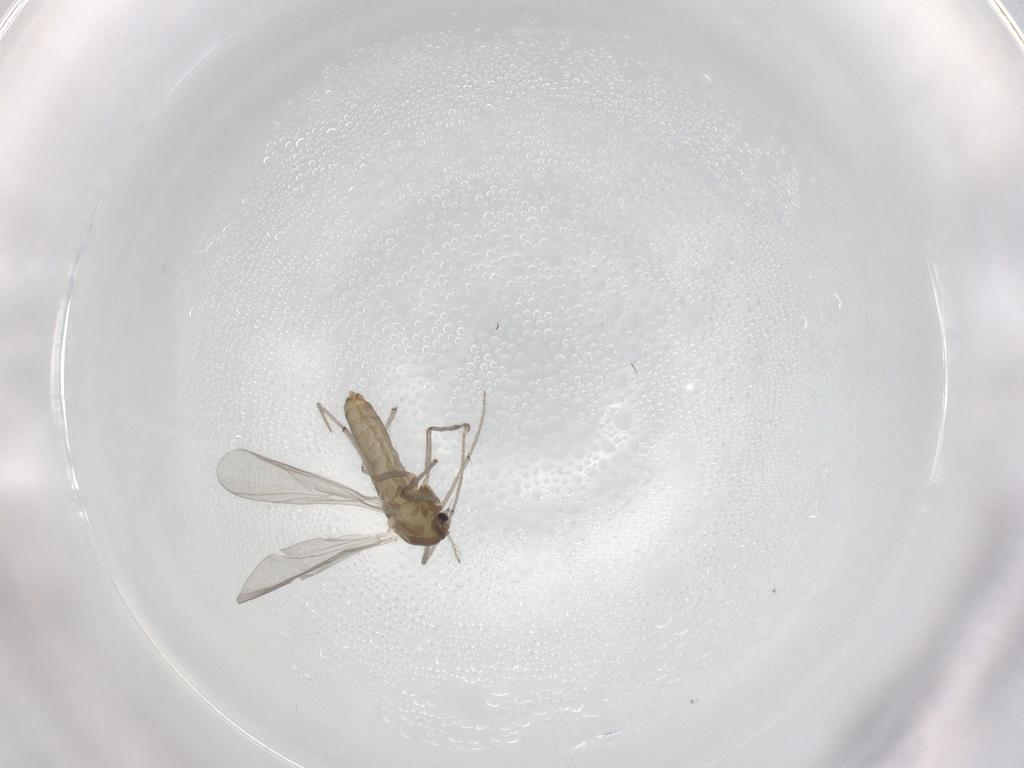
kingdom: Animalia
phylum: Arthropoda
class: Insecta
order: Diptera
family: Chironomidae
